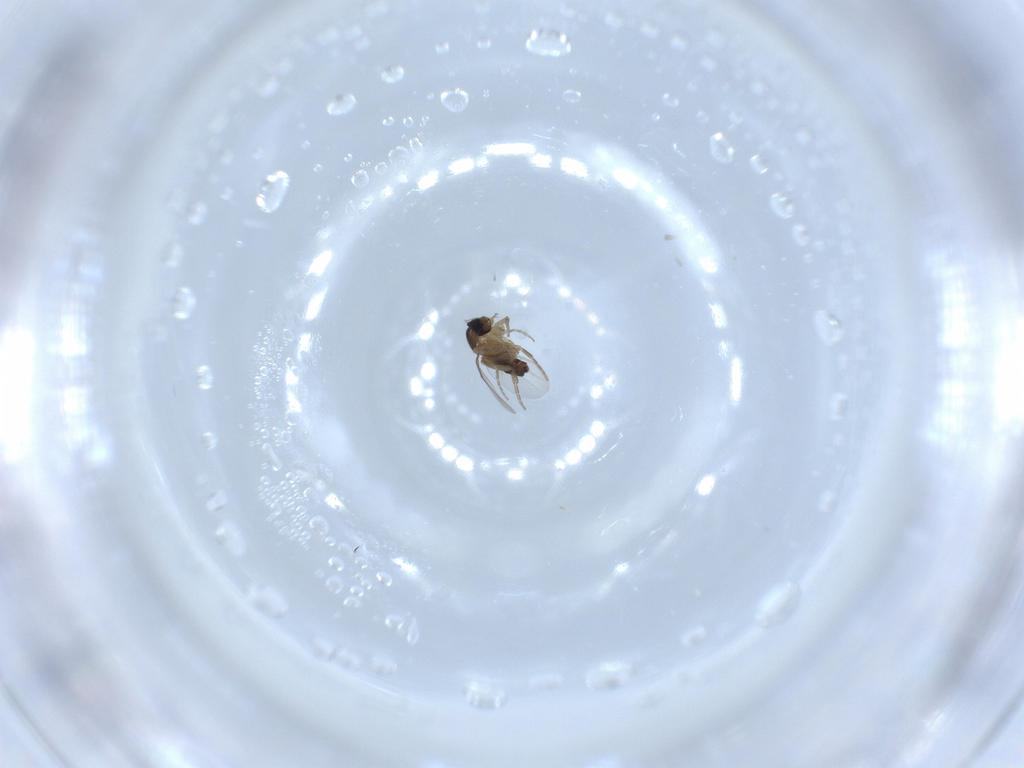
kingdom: Animalia
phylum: Arthropoda
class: Insecta
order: Diptera
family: Phoridae
